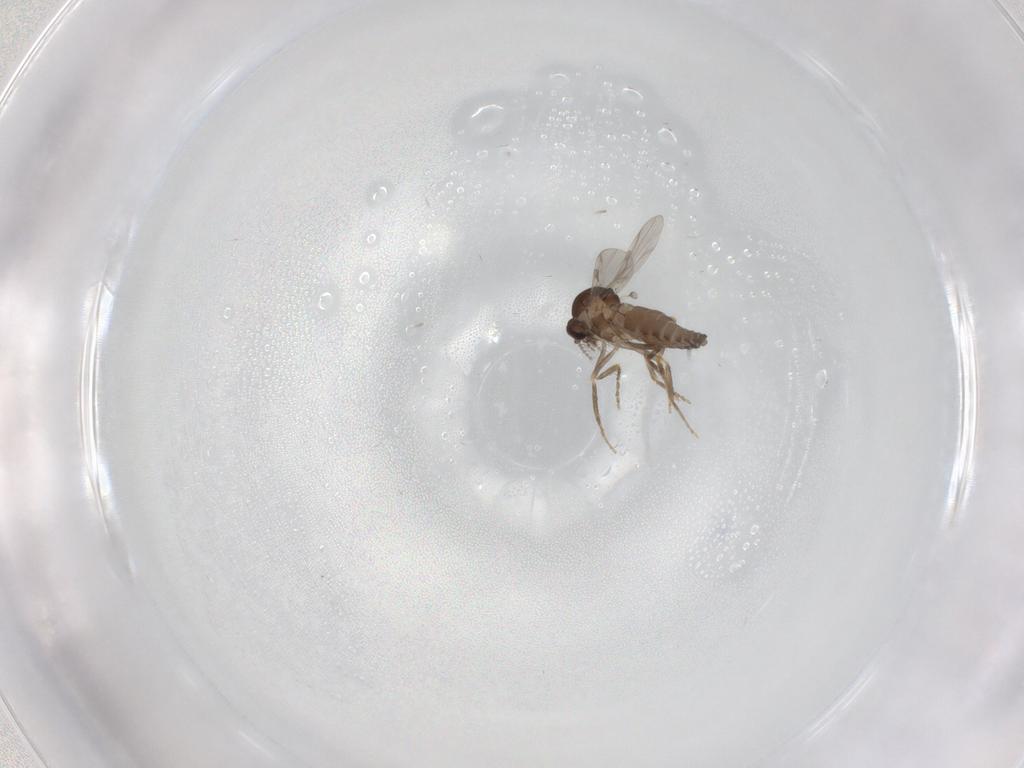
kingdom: Animalia
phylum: Arthropoda
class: Insecta
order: Diptera
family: Ceratopogonidae
